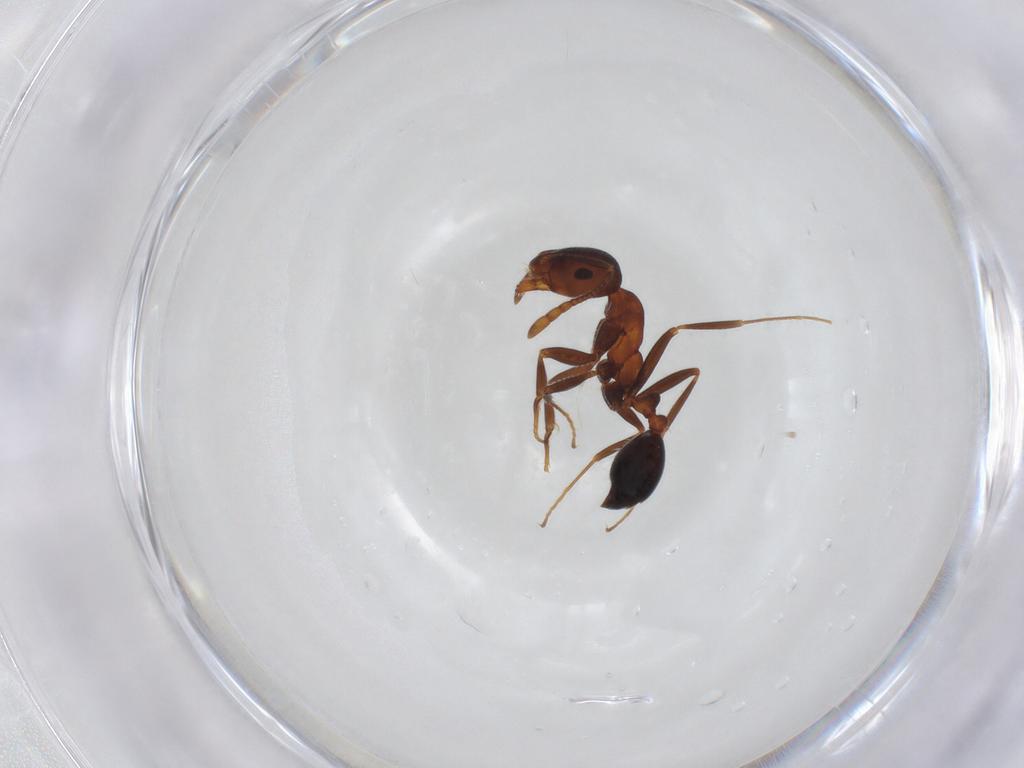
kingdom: Animalia
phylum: Arthropoda
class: Insecta
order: Hymenoptera
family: Formicidae
